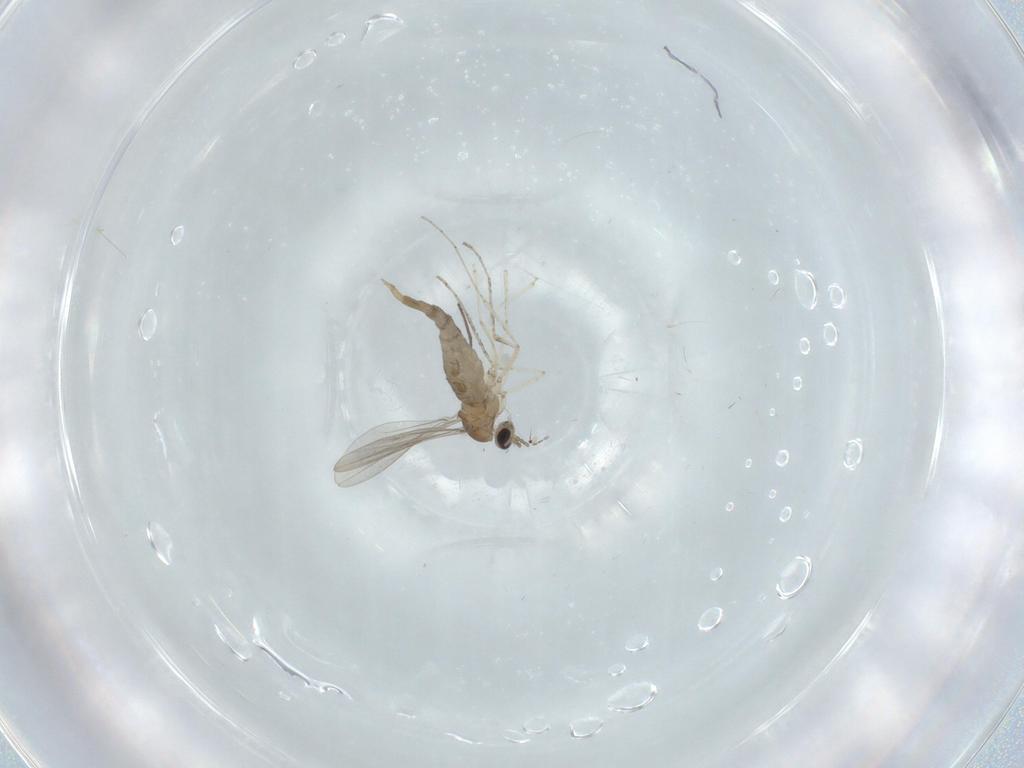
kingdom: Animalia
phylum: Arthropoda
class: Insecta
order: Diptera
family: Cecidomyiidae
